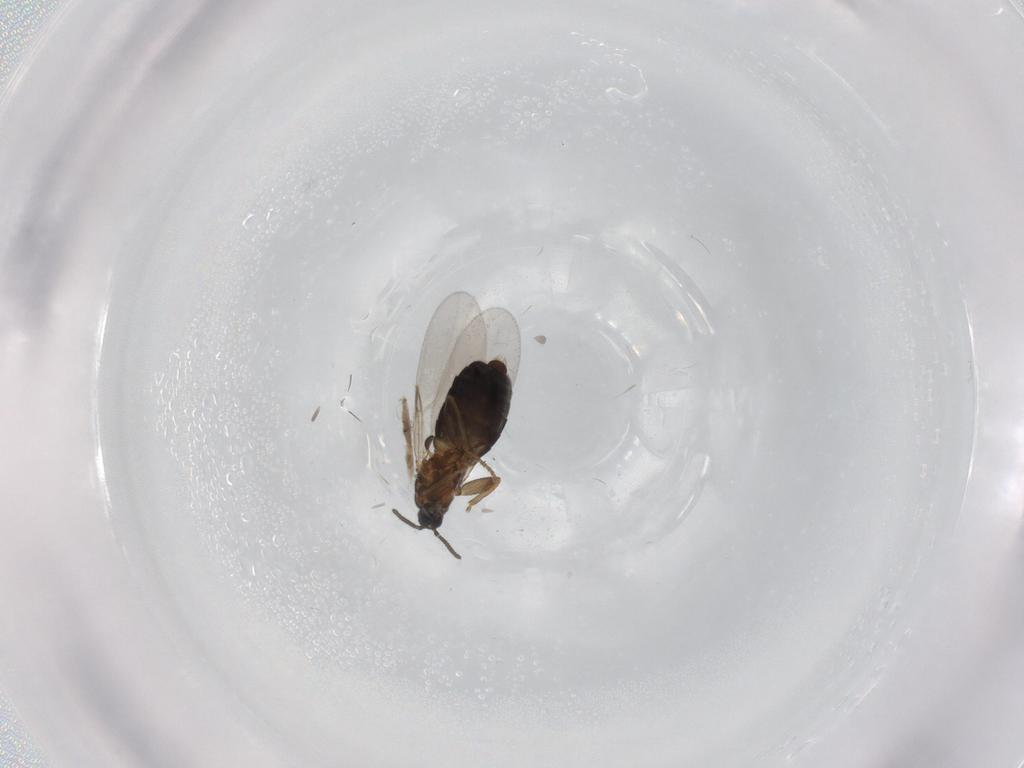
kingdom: Animalia
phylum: Arthropoda
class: Insecta
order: Diptera
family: Scatopsidae
